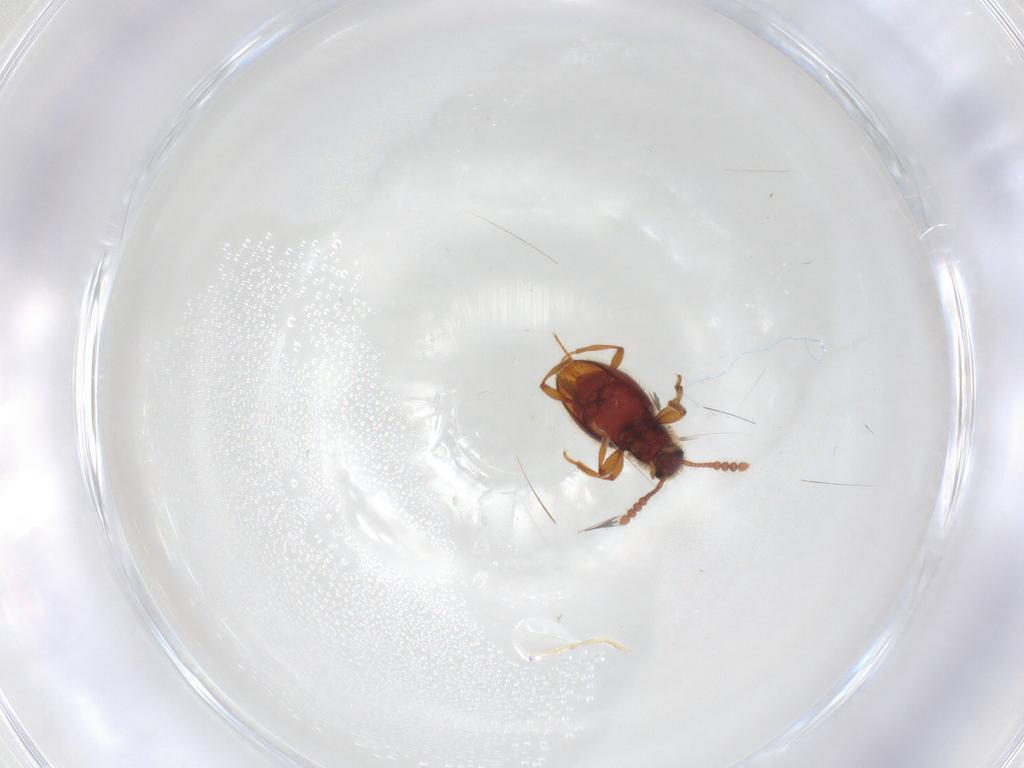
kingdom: Animalia
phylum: Arthropoda
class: Insecta
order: Coleoptera
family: Staphylinidae
